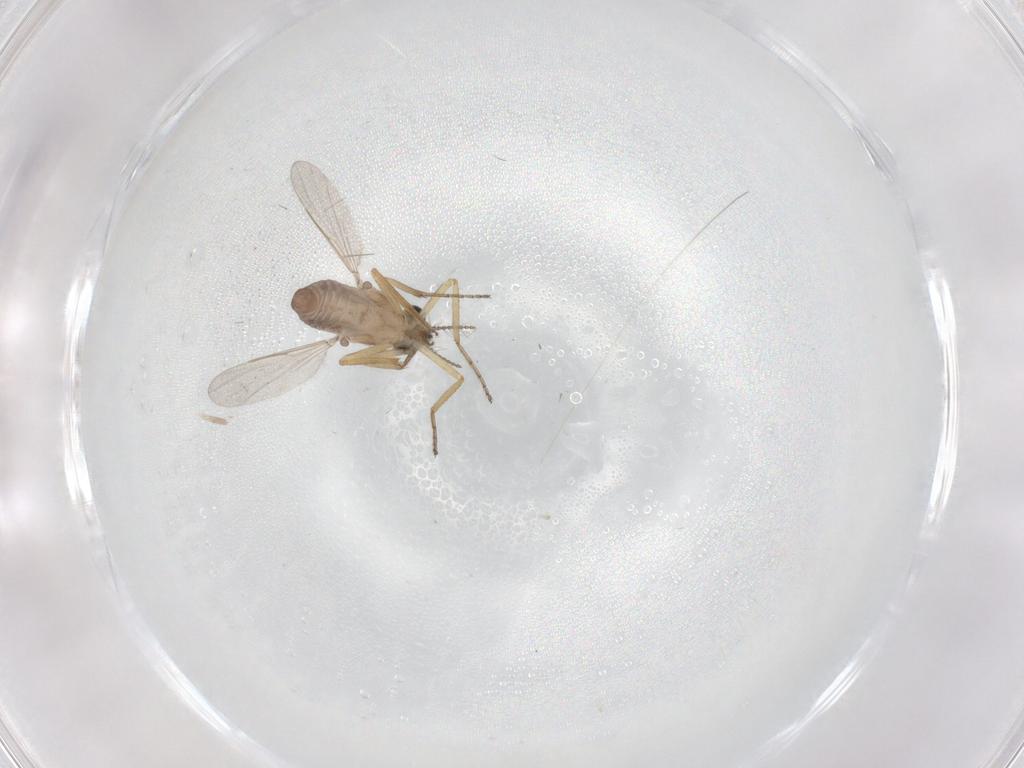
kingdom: Animalia
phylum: Arthropoda
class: Insecta
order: Diptera
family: Ceratopogonidae
